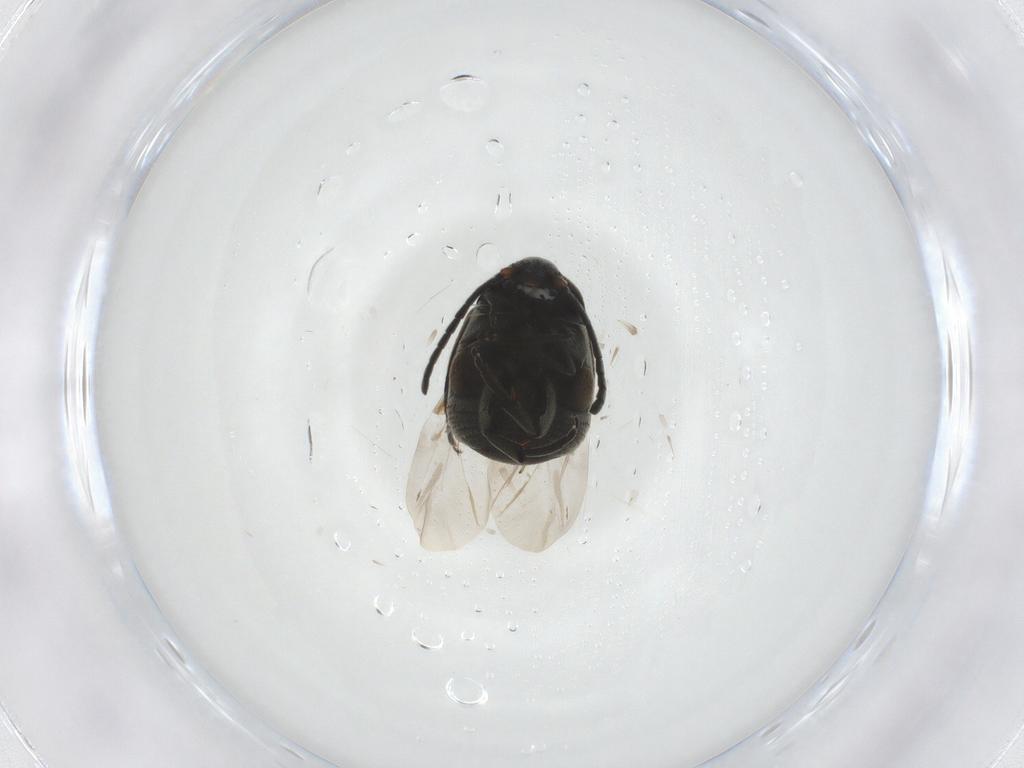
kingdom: Animalia
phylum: Arthropoda
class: Insecta
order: Coleoptera
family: Chrysomelidae
